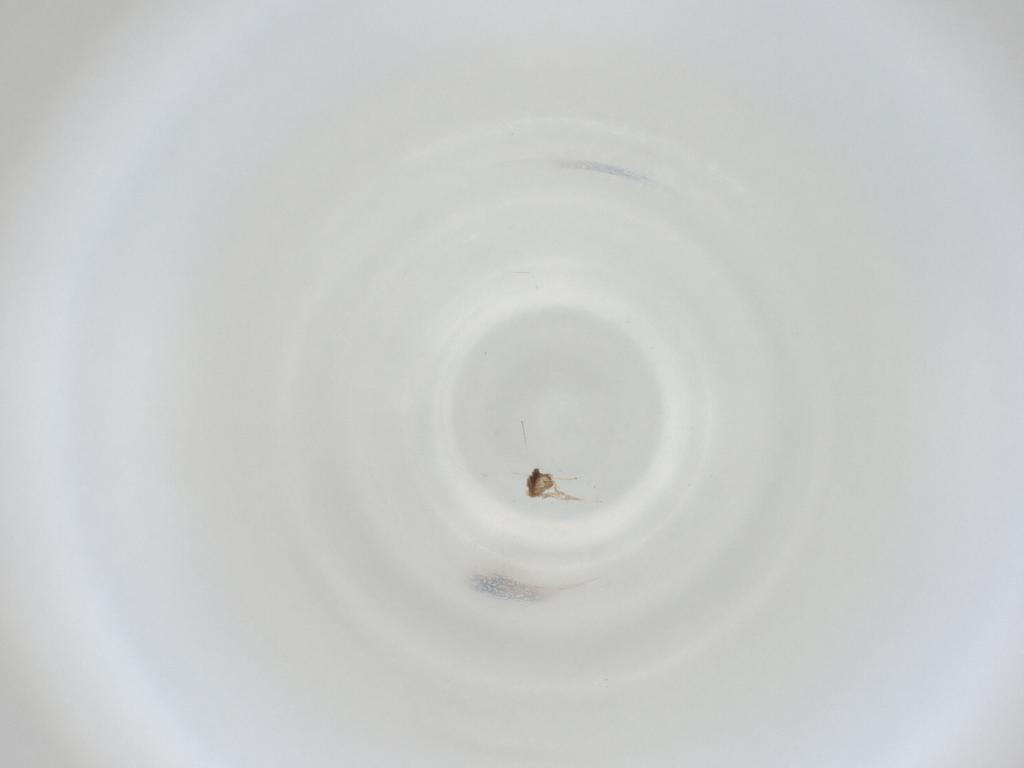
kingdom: Animalia
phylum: Arthropoda
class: Insecta
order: Diptera
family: Cecidomyiidae
